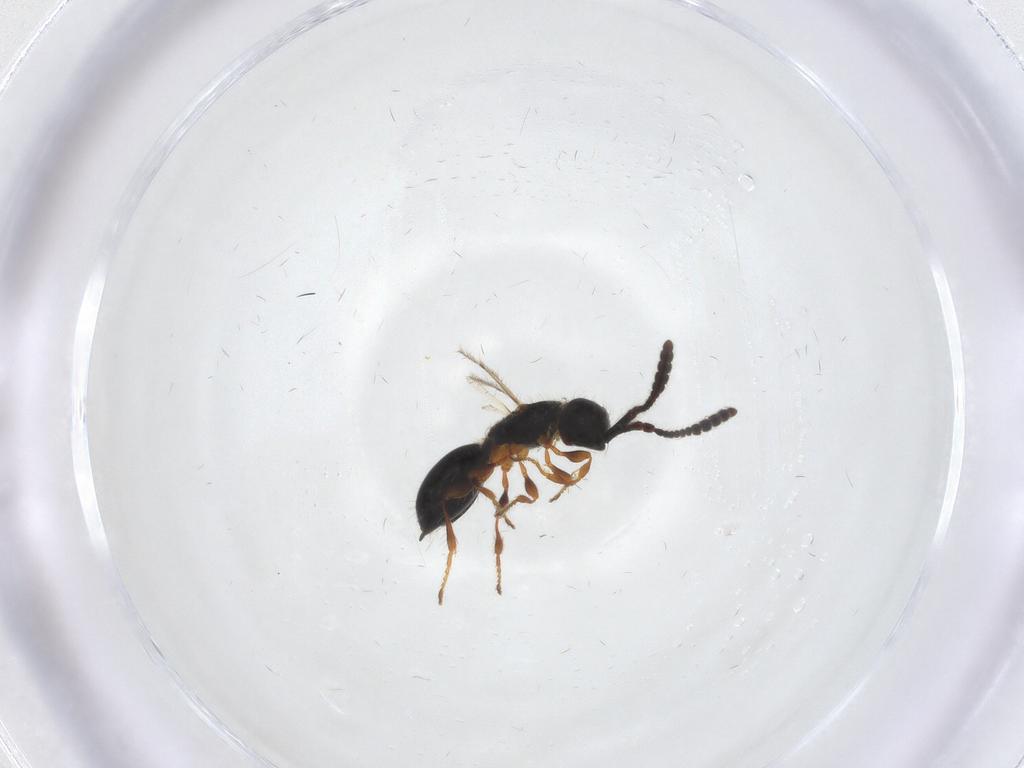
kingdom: Animalia
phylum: Arthropoda
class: Insecta
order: Hymenoptera
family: Diapriidae
